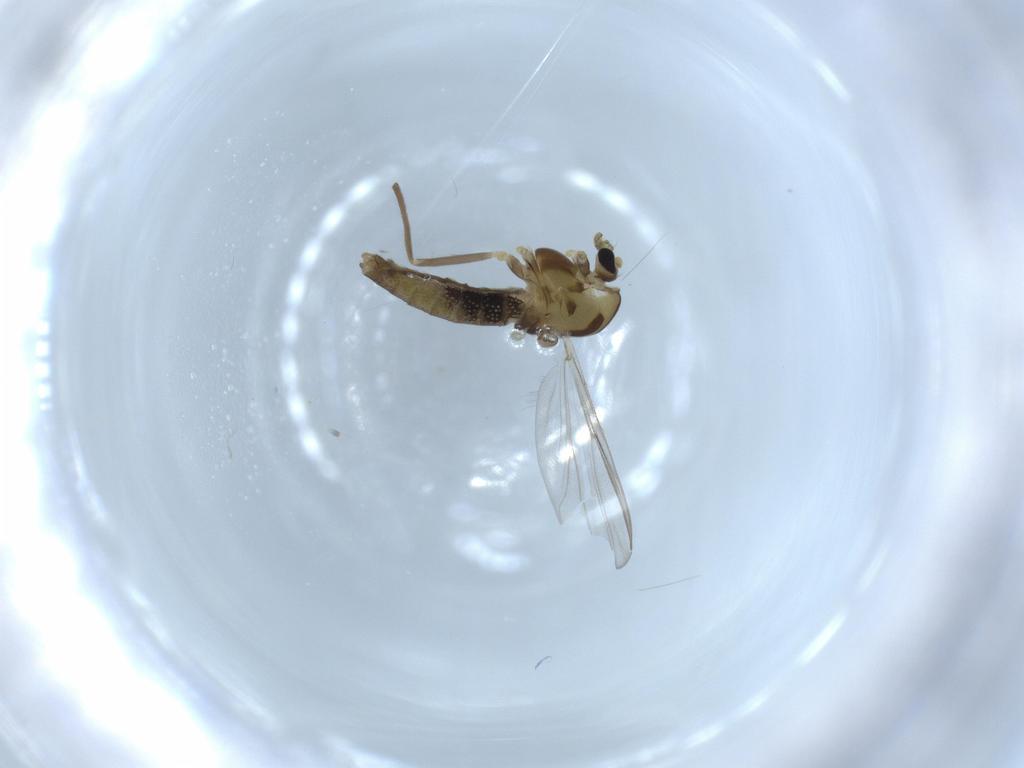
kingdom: Animalia
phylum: Arthropoda
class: Insecta
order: Diptera
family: Chironomidae
